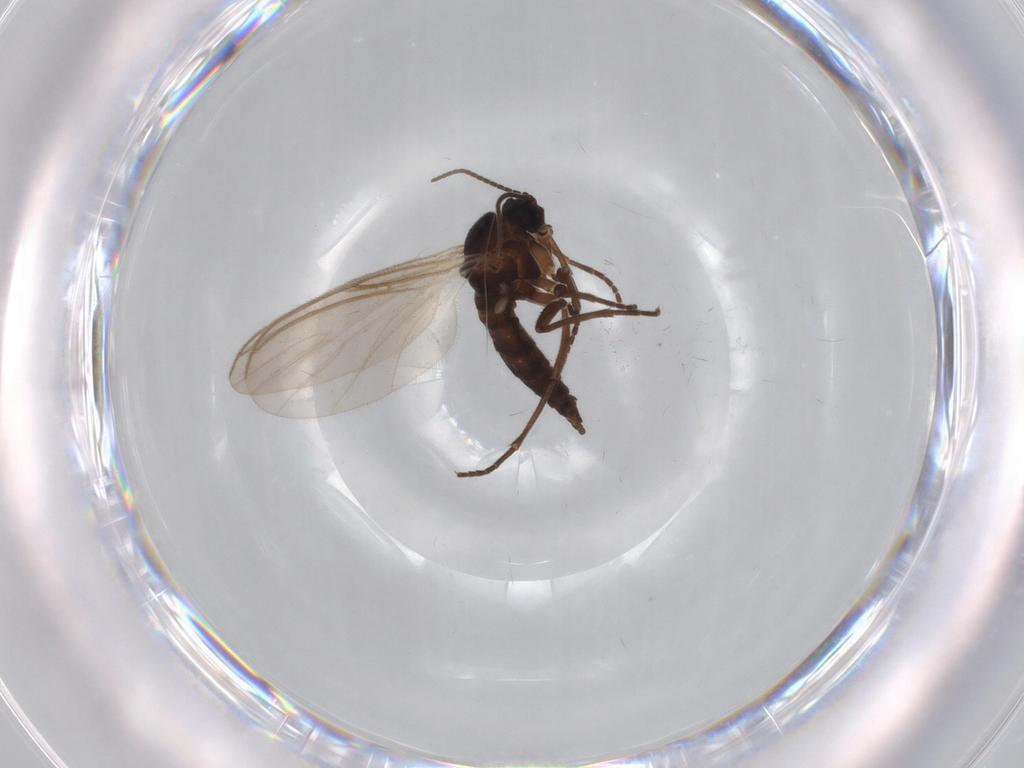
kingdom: Animalia
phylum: Arthropoda
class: Insecta
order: Diptera
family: Sciaridae
